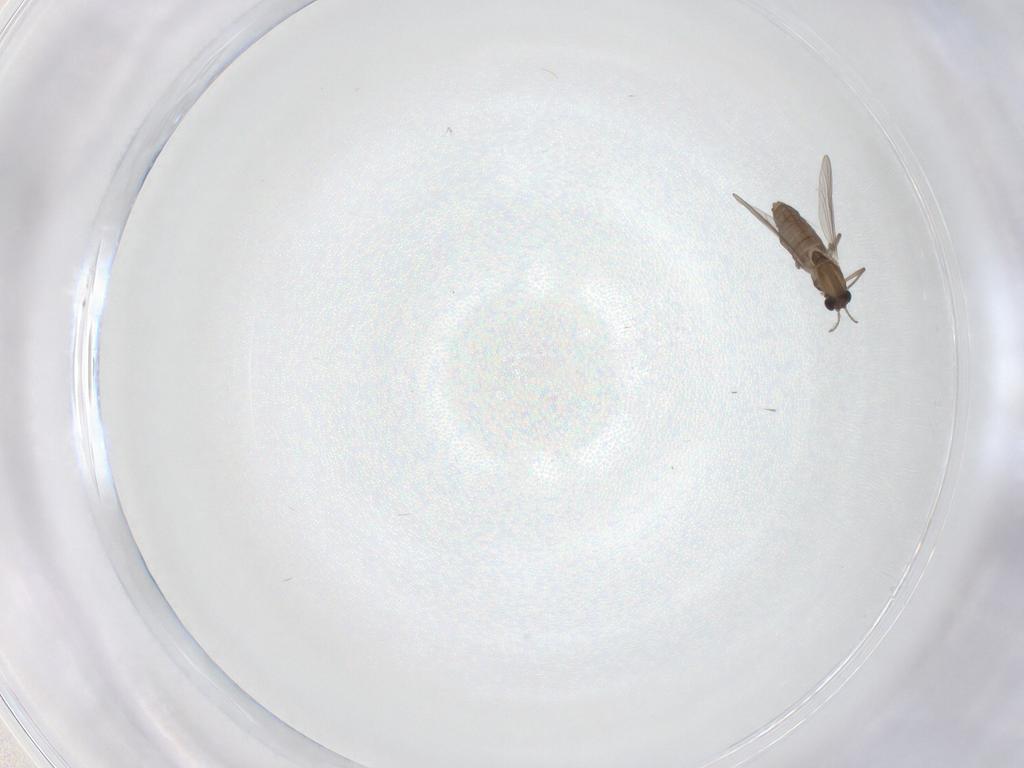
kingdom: Animalia
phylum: Arthropoda
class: Insecta
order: Diptera
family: Chironomidae
